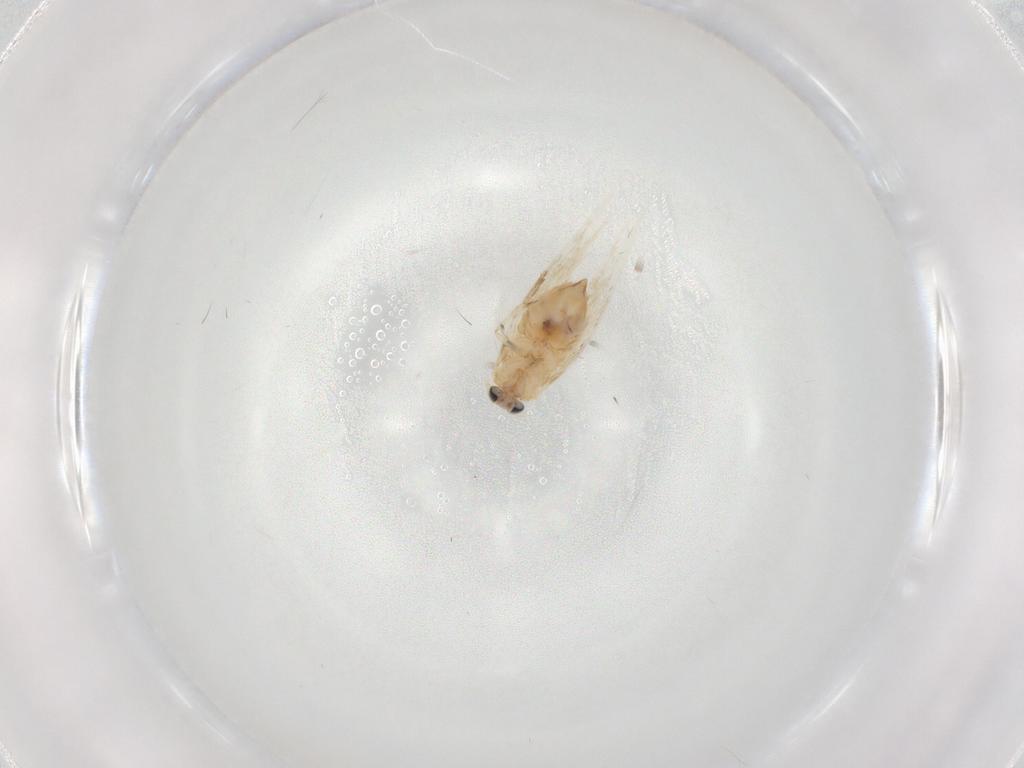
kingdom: Animalia
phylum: Arthropoda
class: Insecta
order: Lepidoptera
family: Nepticulidae
